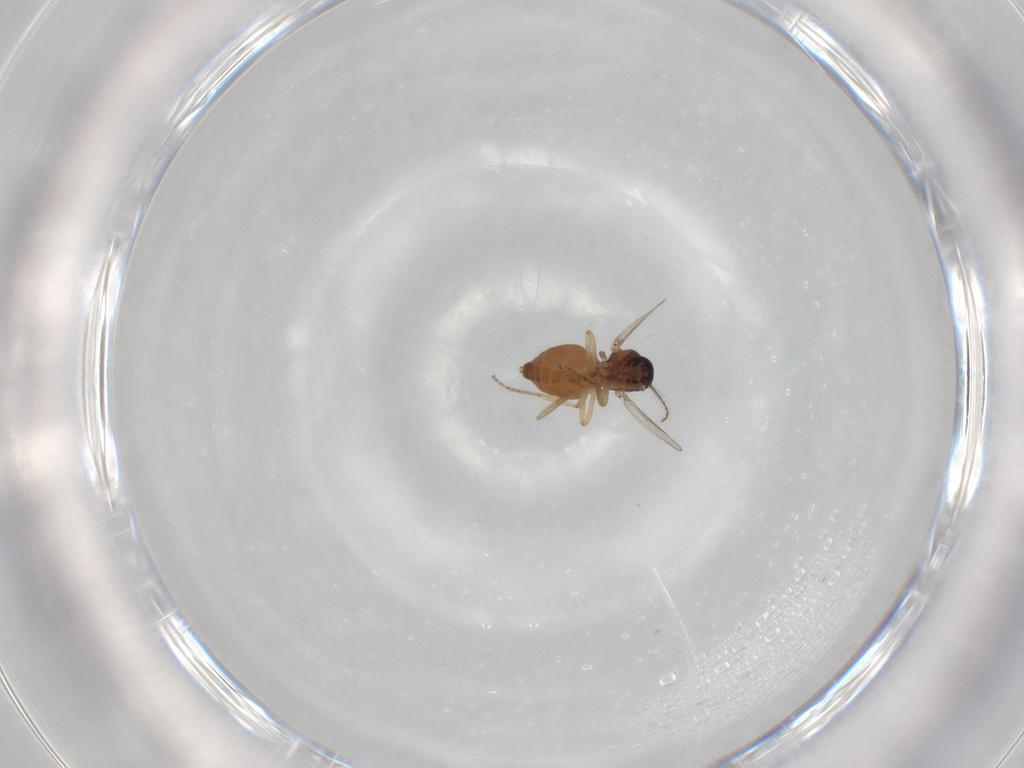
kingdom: Animalia
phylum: Arthropoda
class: Insecta
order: Diptera
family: Ceratopogonidae
